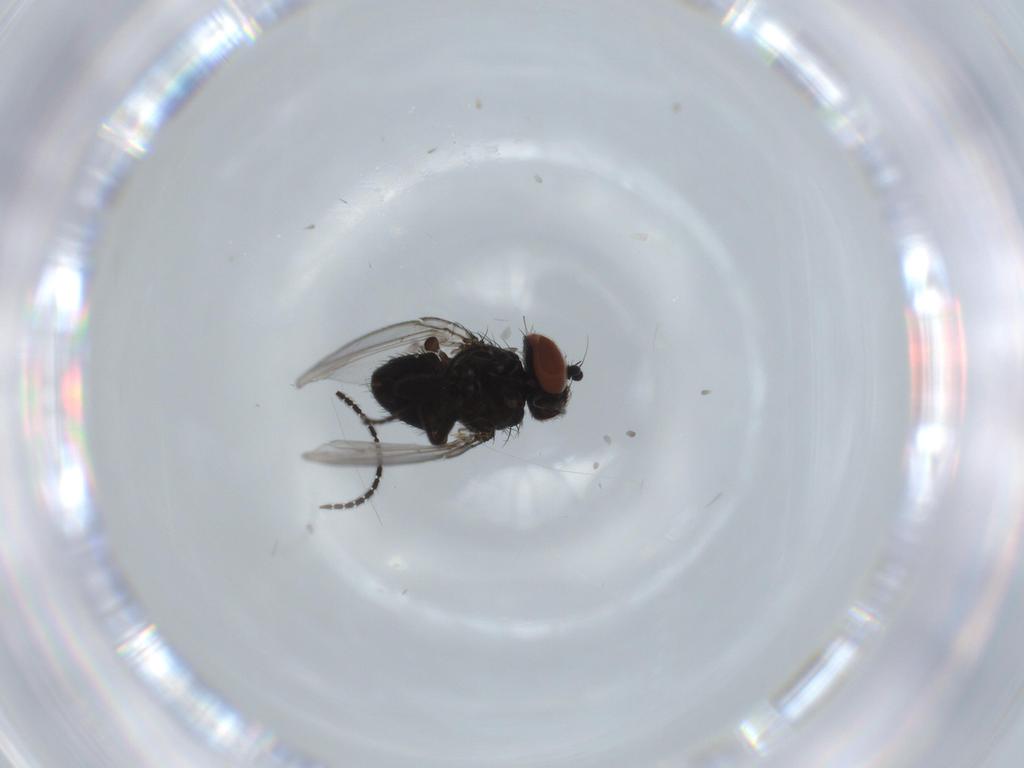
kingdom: Animalia
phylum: Arthropoda
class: Insecta
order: Diptera
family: Milichiidae
